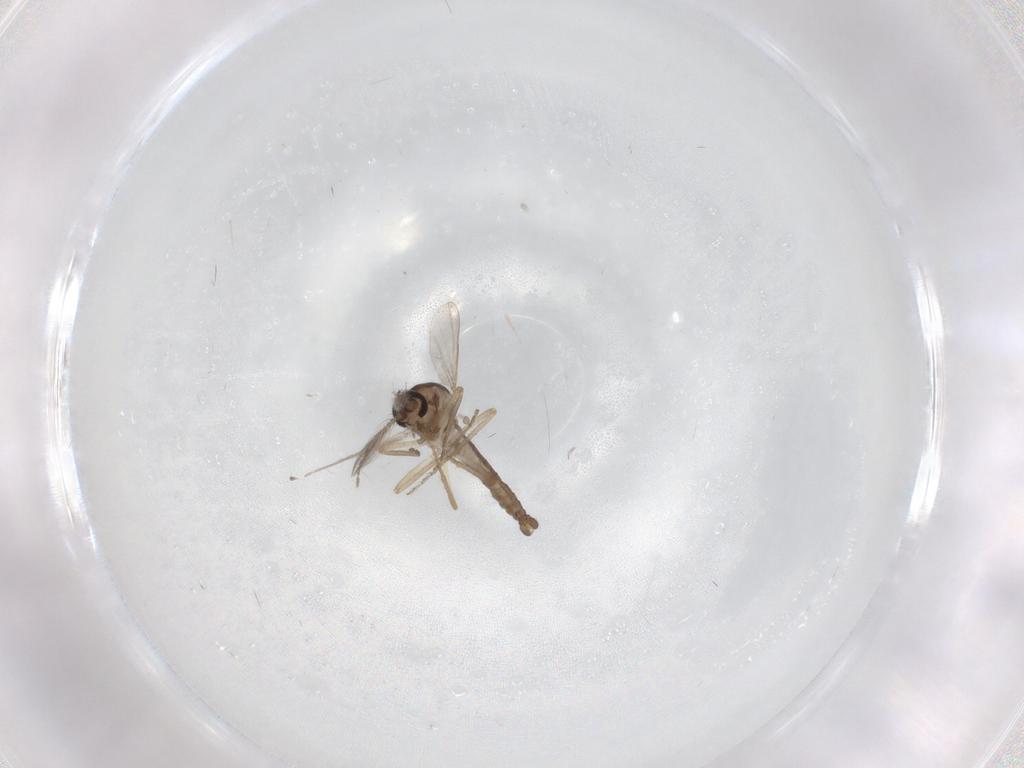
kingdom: Animalia
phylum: Arthropoda
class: Insecta
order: Diptera
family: Ceratopogonidae
